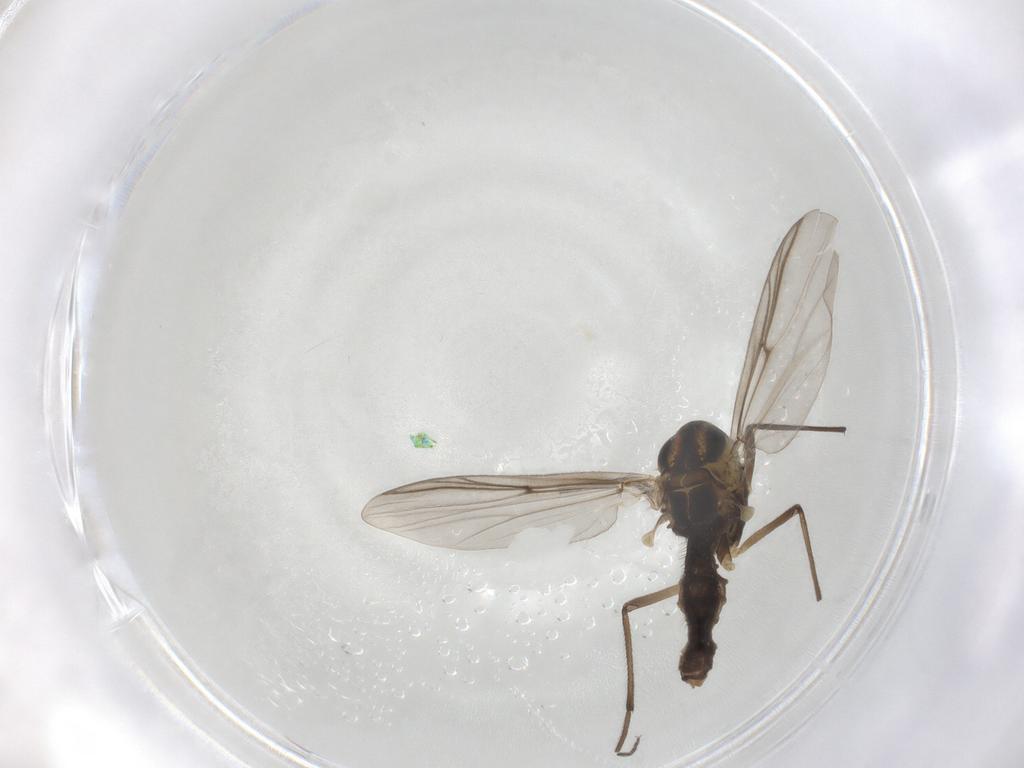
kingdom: Animalia
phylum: Arthropoda
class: Insecta
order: Diptera
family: Chironomidae
